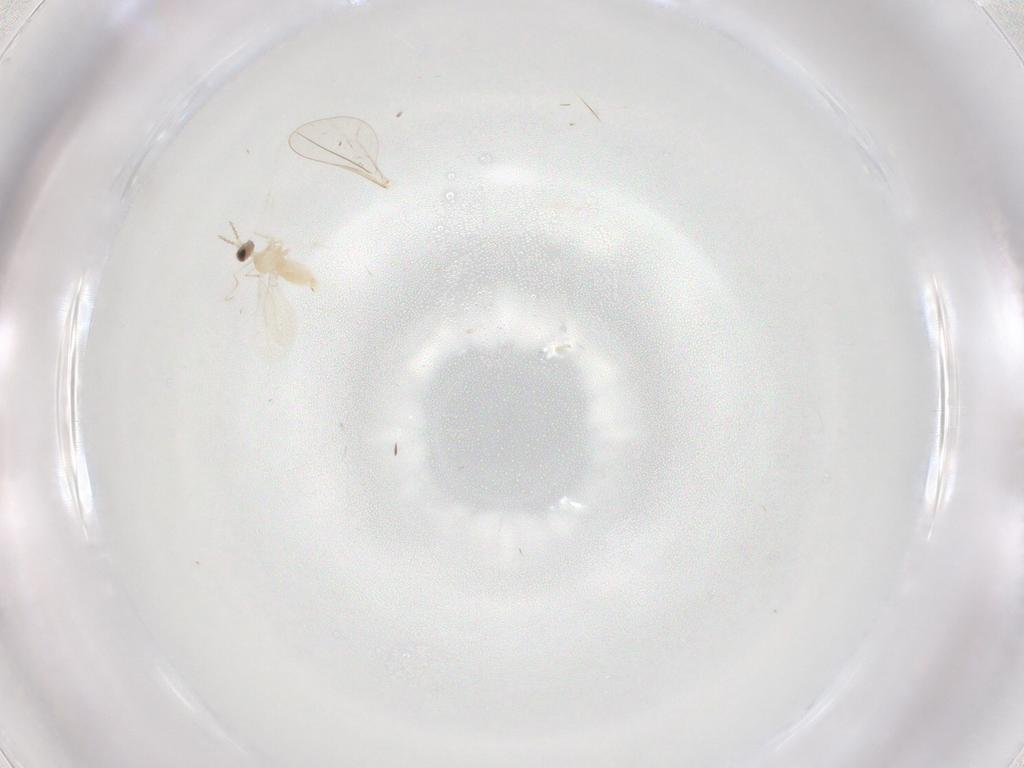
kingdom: Animalia
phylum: Arthropoda
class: Insecta
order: Diptera
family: Cecidomyiidae
